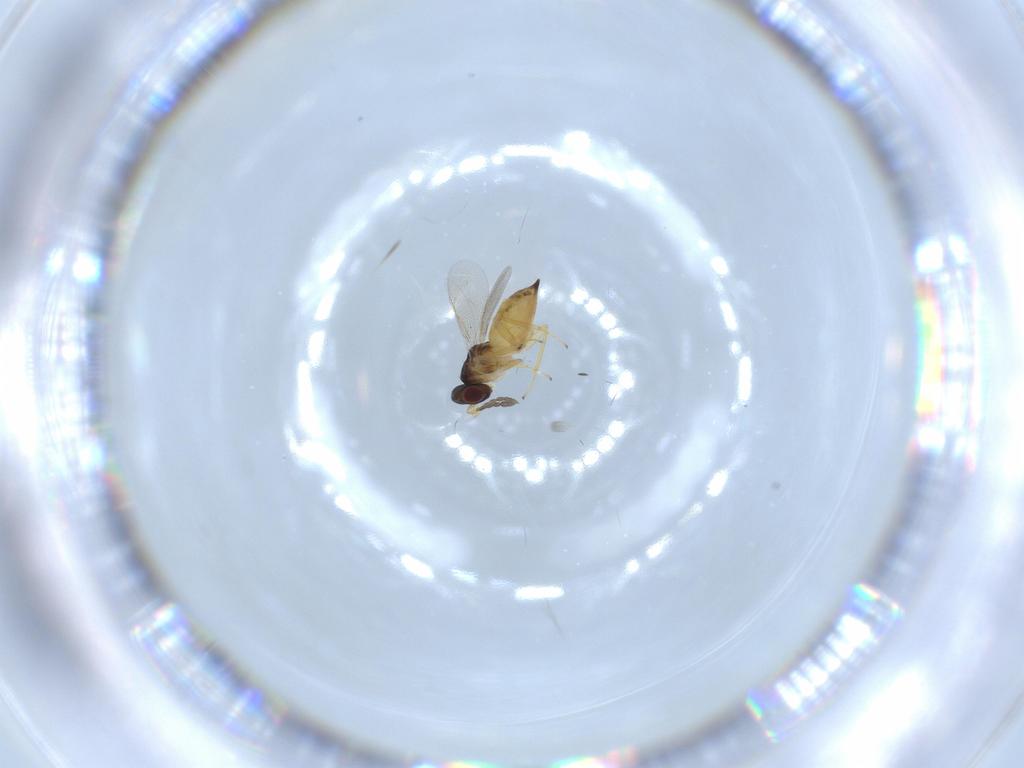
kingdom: Animalia
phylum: Arthropoda
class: Insecta
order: Hymenoptera
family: Eulophidae
